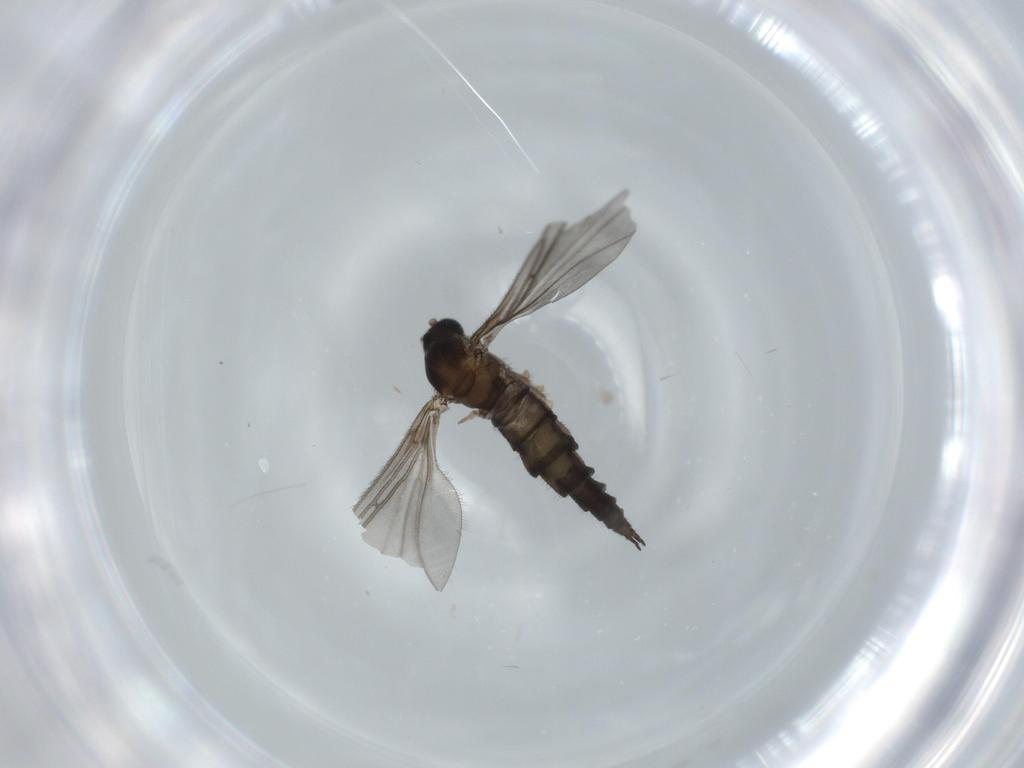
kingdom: Animalia
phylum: Arthropoda
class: Insecta
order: Diptera
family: Sciaridae
